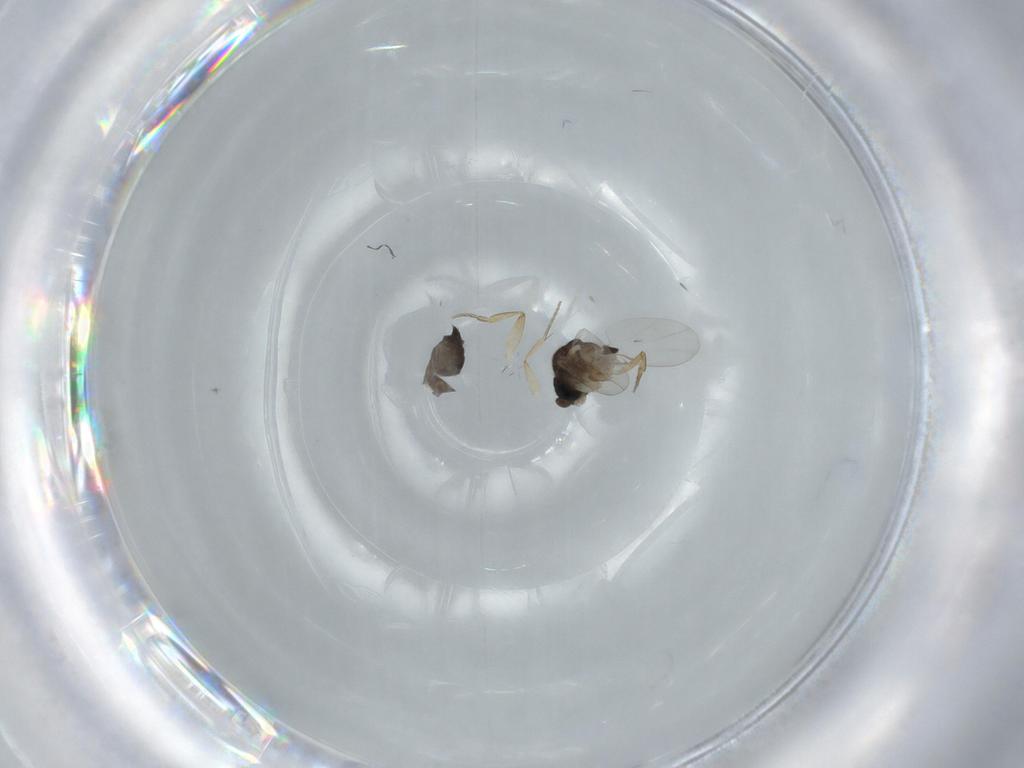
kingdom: Animalia
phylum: Arthropoda
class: Insecta
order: Diptera
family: Phoridae
